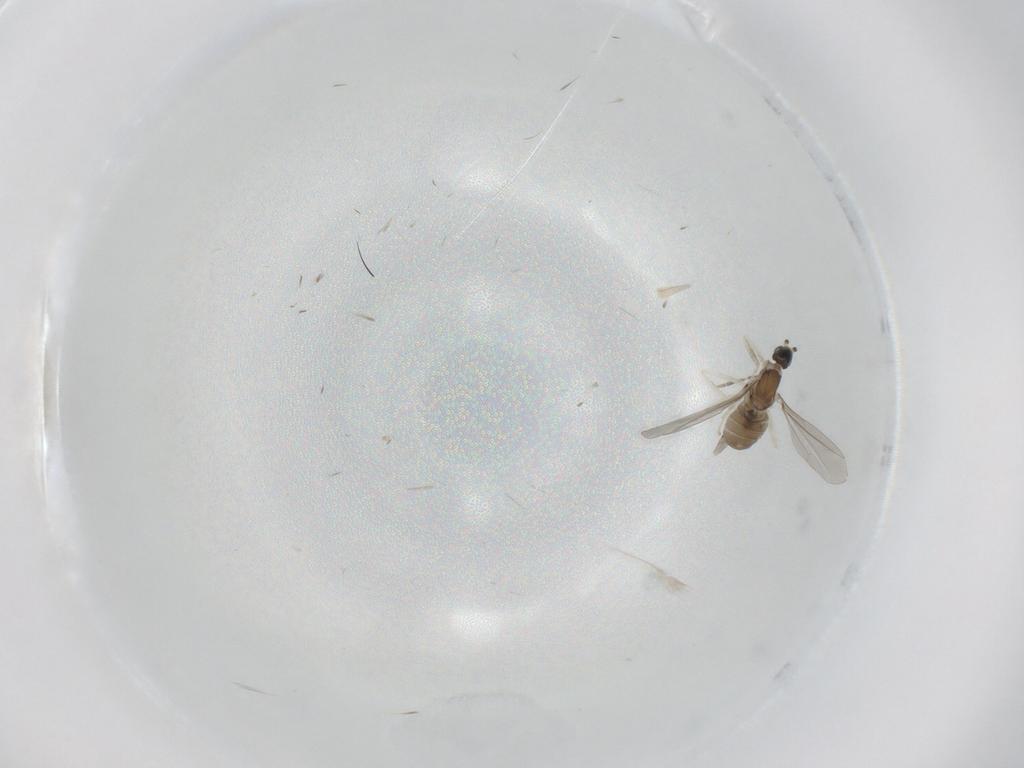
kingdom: Animalia
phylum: Arthropoda
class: Insecta
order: Diptera
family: Cecidomyiidae
